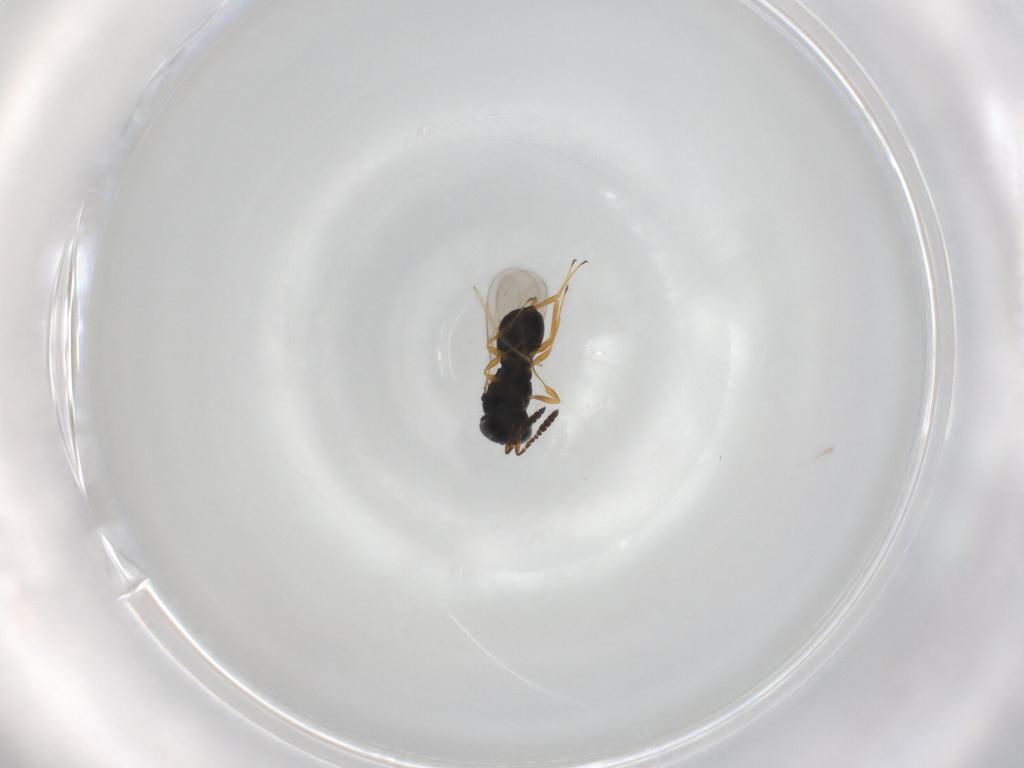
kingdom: Animalia
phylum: Arthropoda
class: Insecta
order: Hymenoptera
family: Scelionidae
